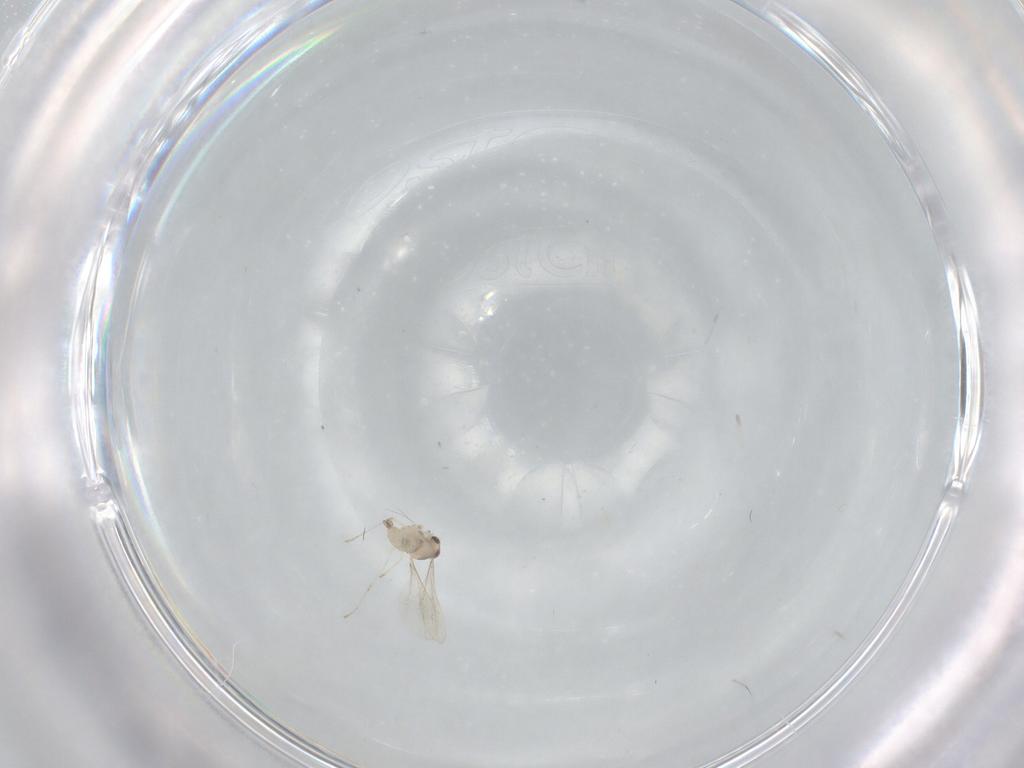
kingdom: Animalia
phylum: Arthropoda
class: Insecta
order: Diptera
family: Cecidomyiidae
